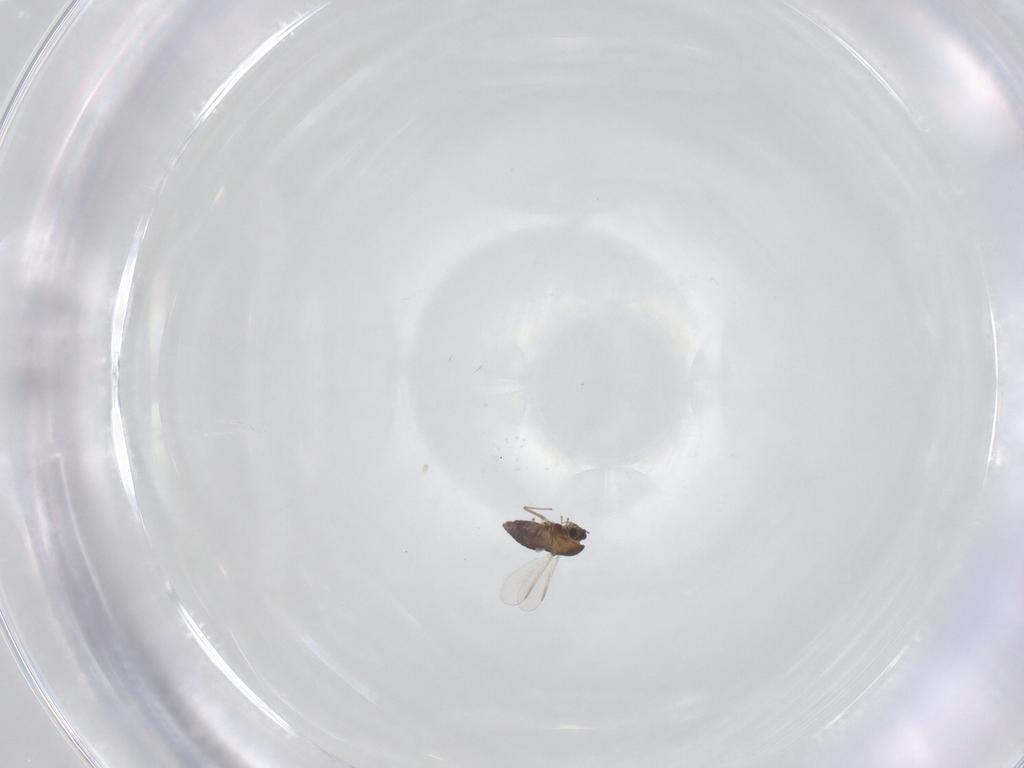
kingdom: Animalia
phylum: Arthropoda
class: Insecta
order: Diptera
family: Chironomidae
